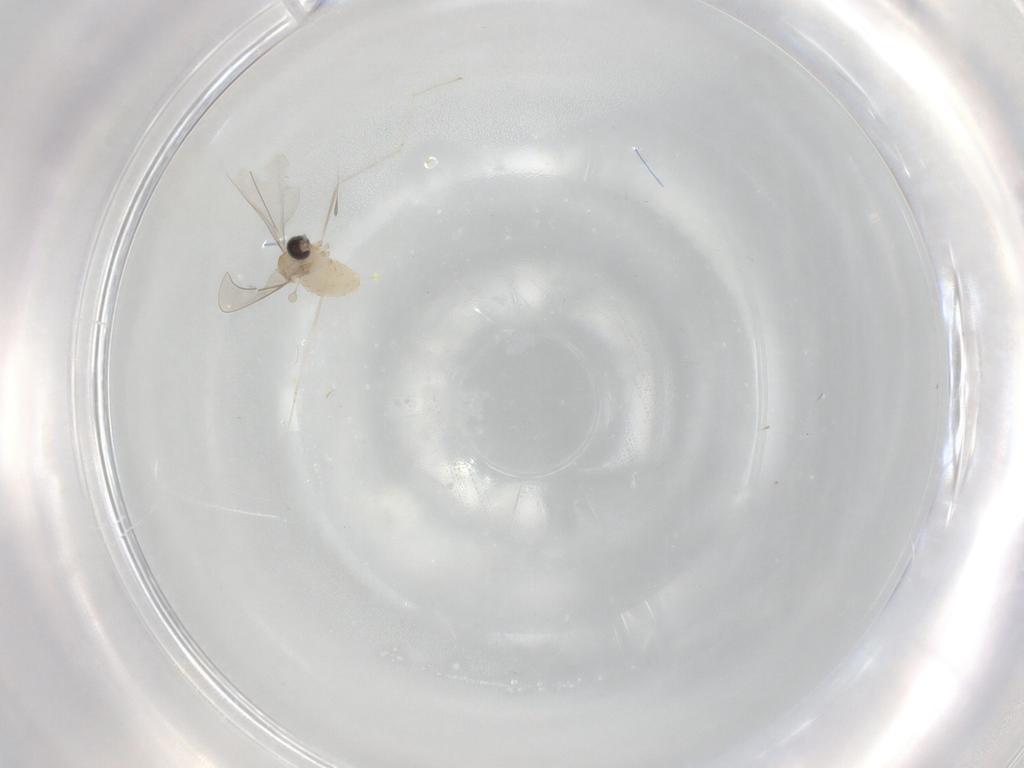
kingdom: Animalia
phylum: Arthropoda
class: Insecta
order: Diptera
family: Cecidomyiidae
